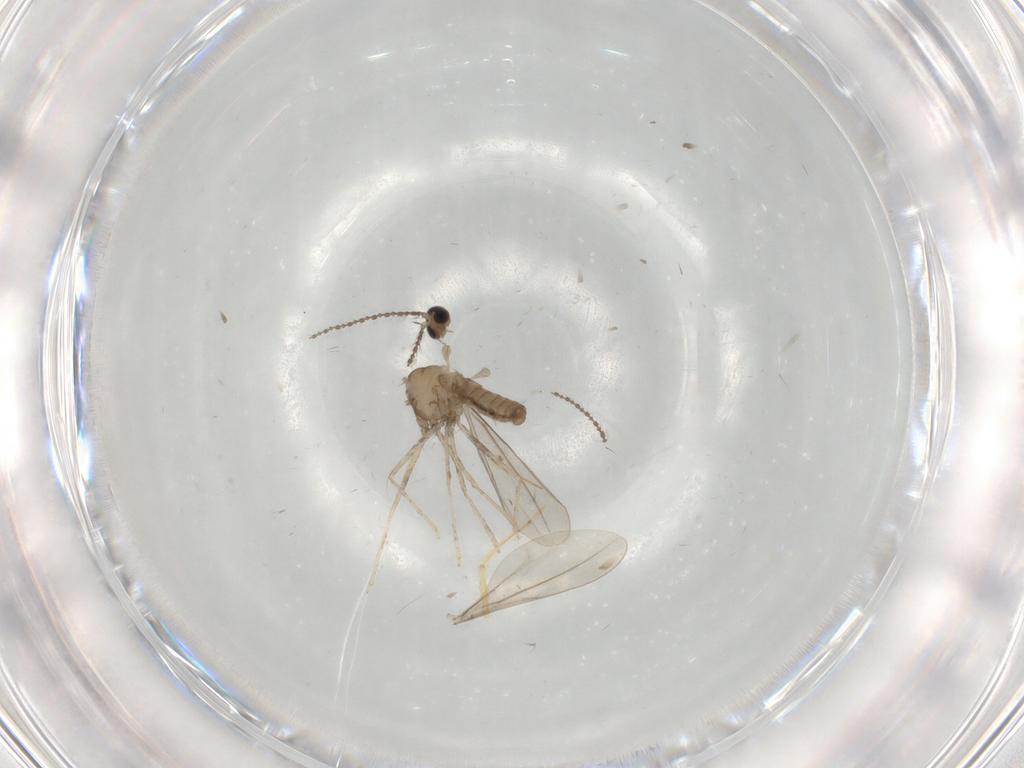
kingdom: Animalia
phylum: Arthropoda
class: Insecta
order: Diptera
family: Cecidomyiidae
